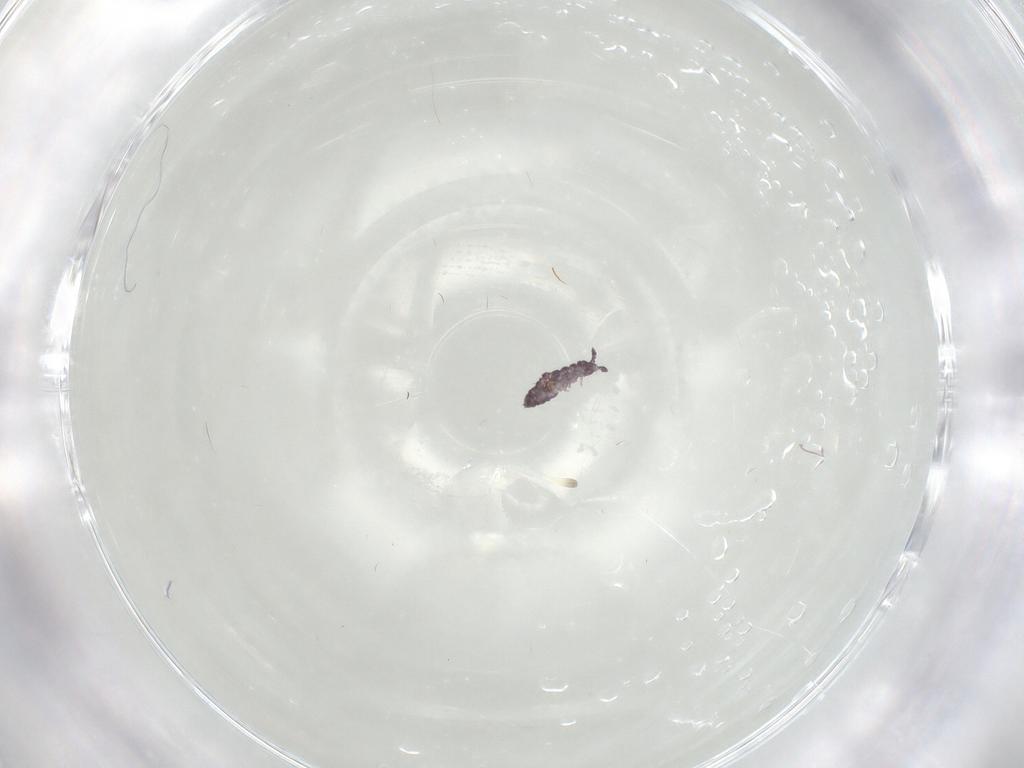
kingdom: Animalia
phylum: Arthropoda
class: Collembola
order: Poduromorpha
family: Hypogastruridae
